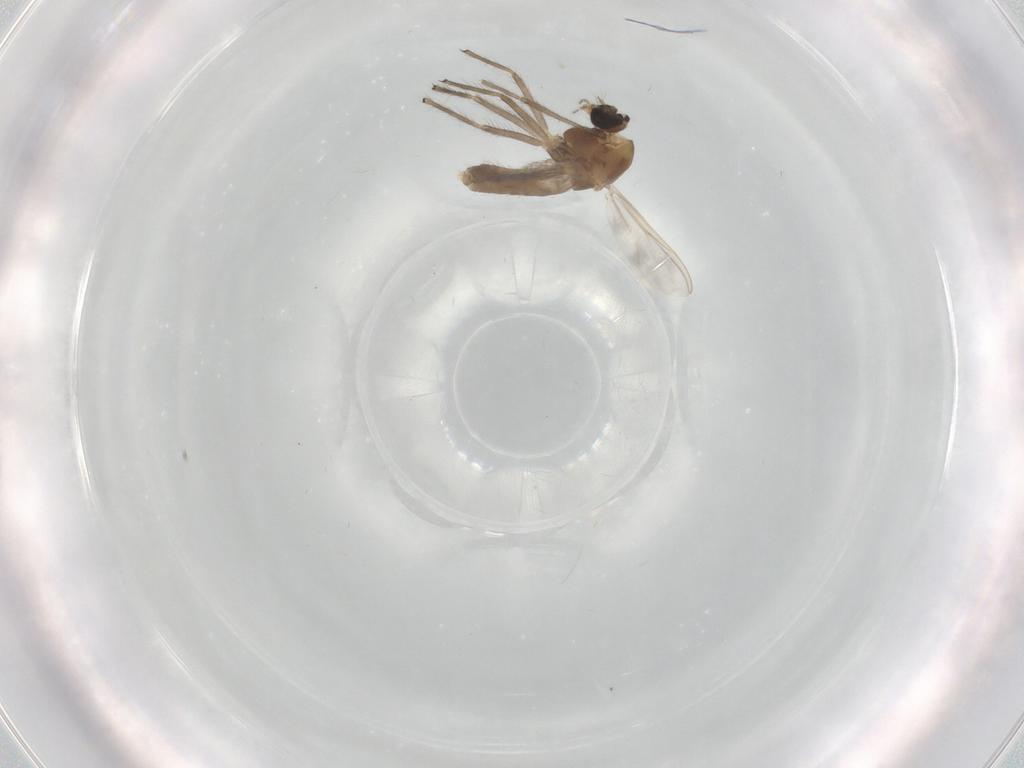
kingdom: Animalia
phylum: Arthropoda
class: Insecta
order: Diptera
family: Chironomidae
